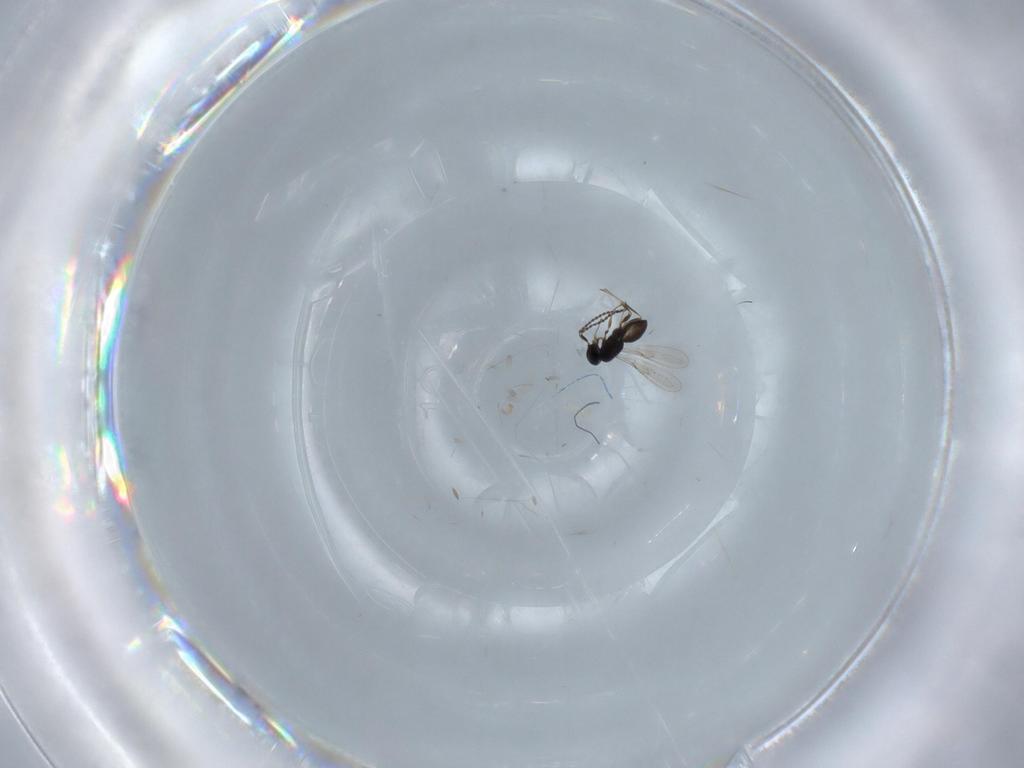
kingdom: Animalia
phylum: Arthropoda
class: Insecta
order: Hymenoptera
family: Scelionidae
